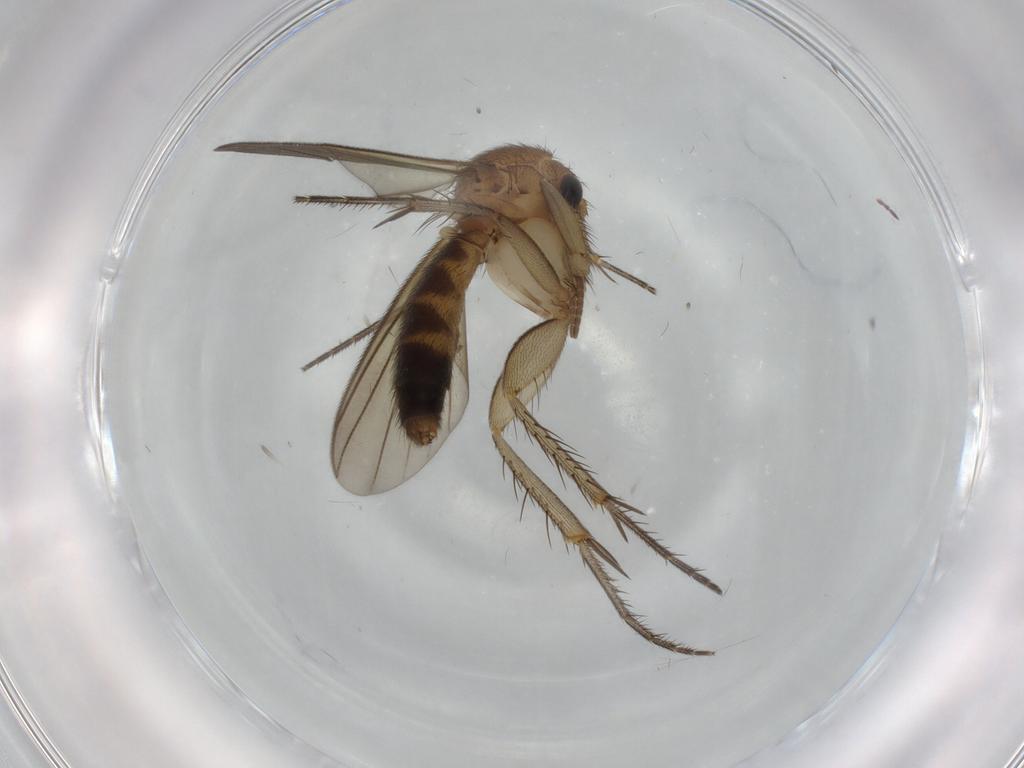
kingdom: Animalia
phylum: Arthropoda
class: Insecta
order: Diptera
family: Mycetophilidae
